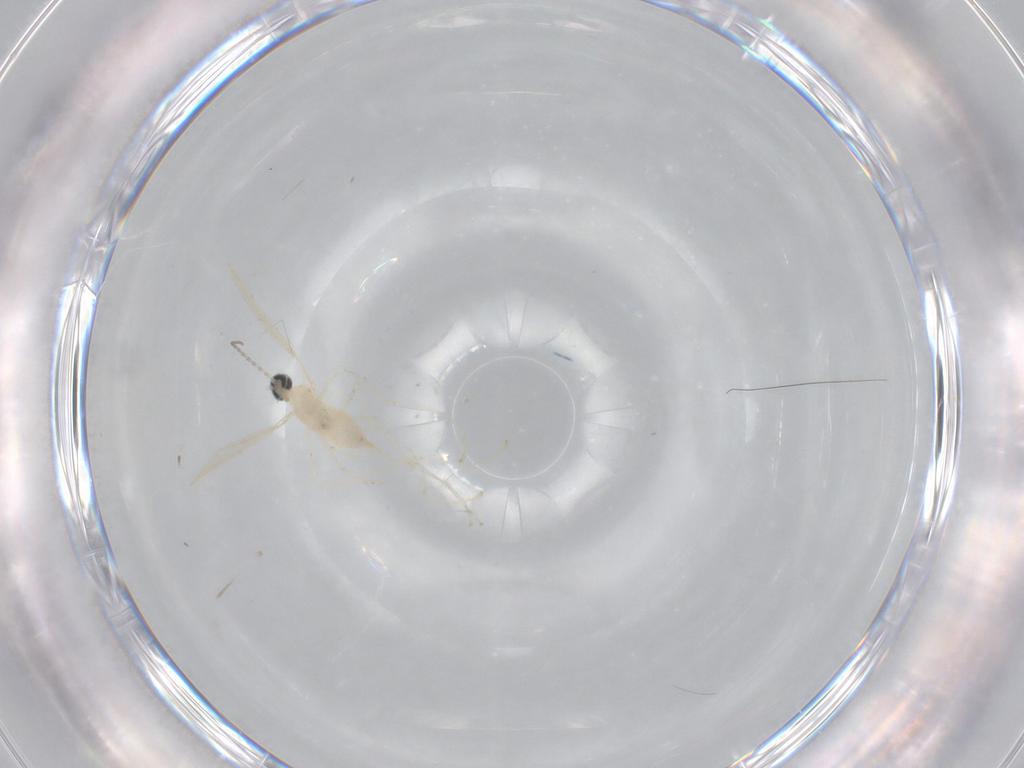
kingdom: Animalia
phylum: Arthropoda
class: Insecta
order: Diptera
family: Cecidomyiidae
